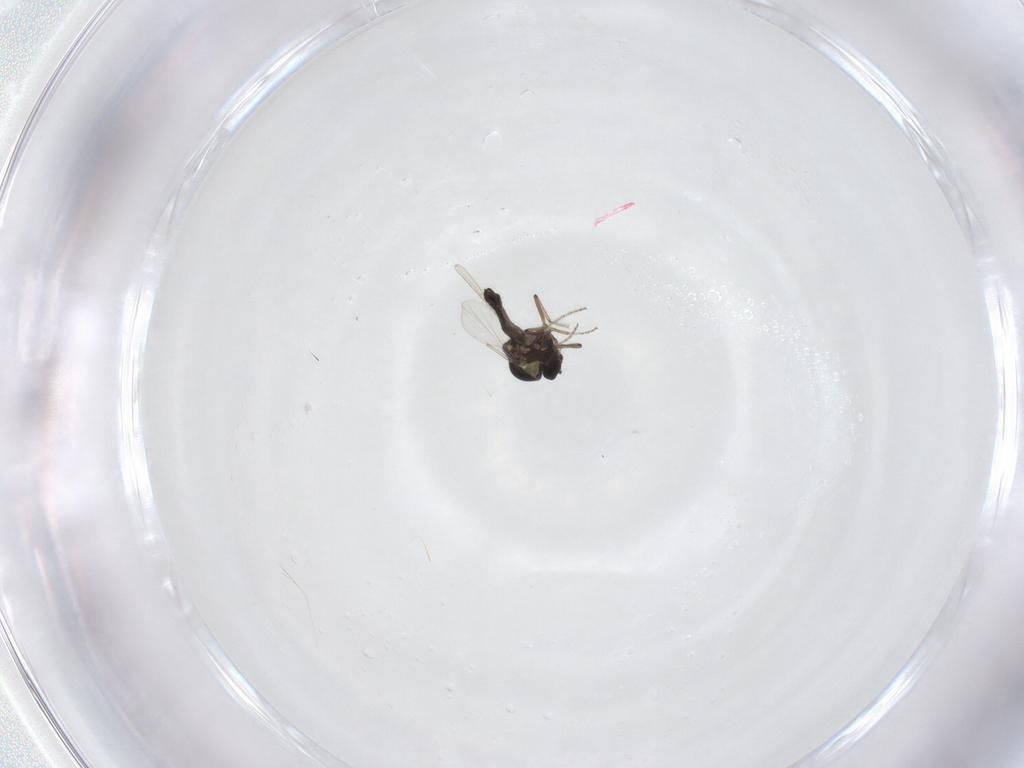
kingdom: Animalia
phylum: Arthropoda
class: Insecta
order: Diptera
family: Ceratopogonidae
